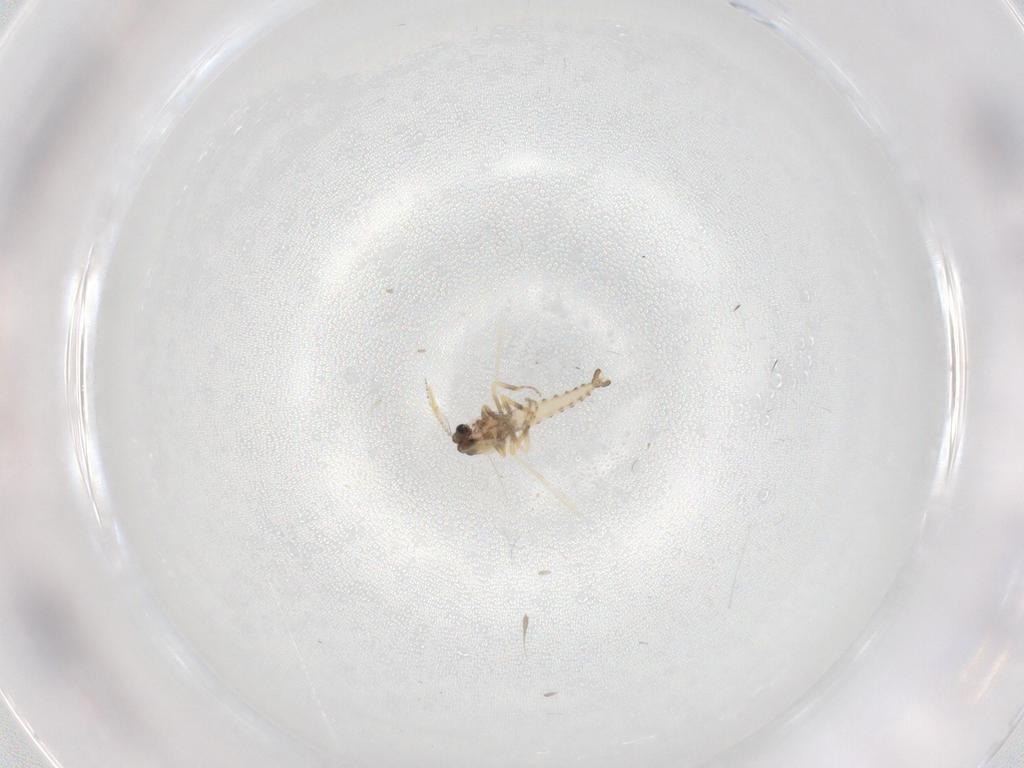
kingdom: Animalia
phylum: Arthropoda
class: Insecta
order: Diptera
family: Ceratopogonidae
